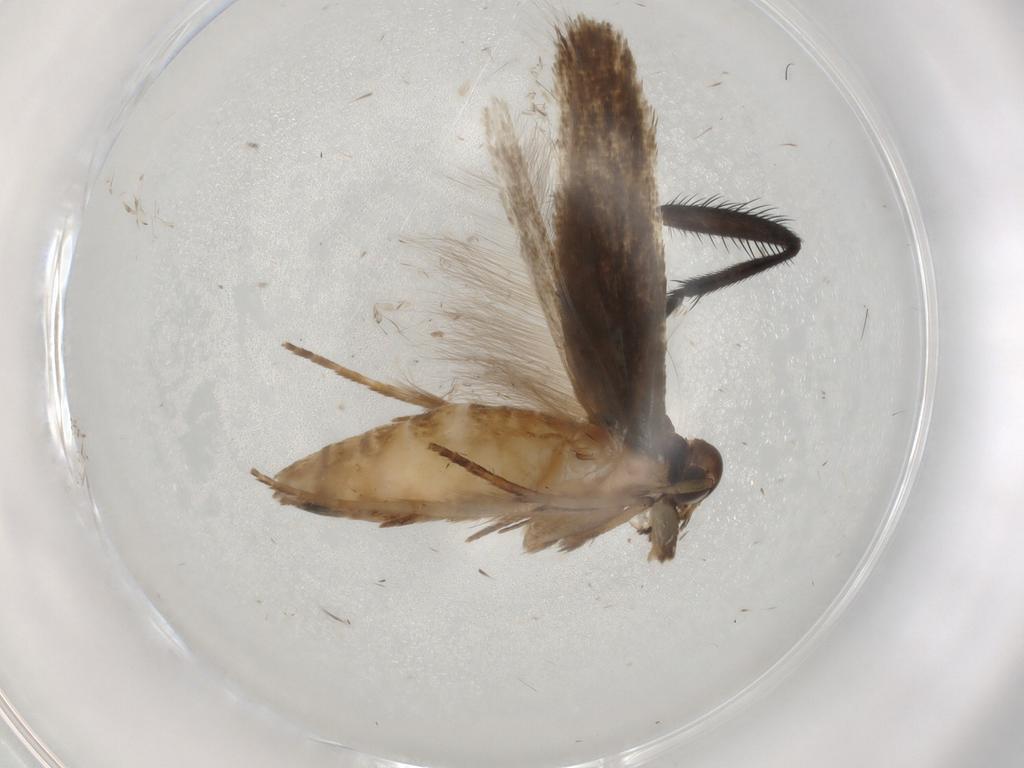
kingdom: Animalia
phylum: Arthropoda
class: Insecta
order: Lepidoptera
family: Cosmopterigidae
